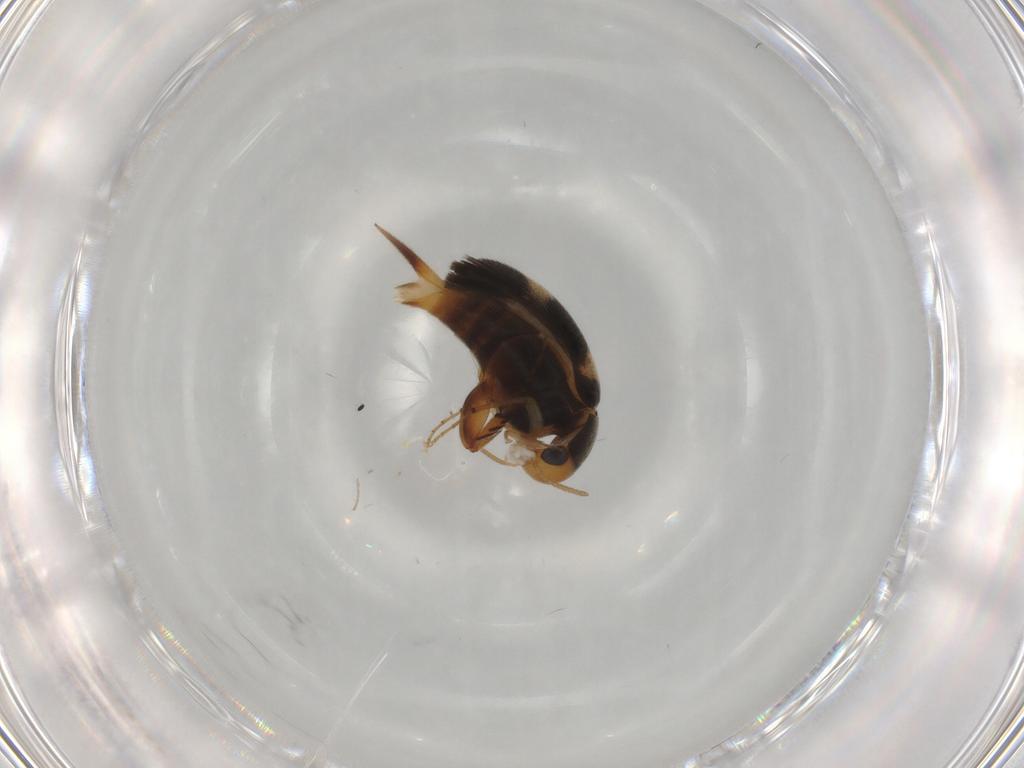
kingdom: Animalia
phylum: Arthropoda
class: Insecta
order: Coleoptera
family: Mordellidae
